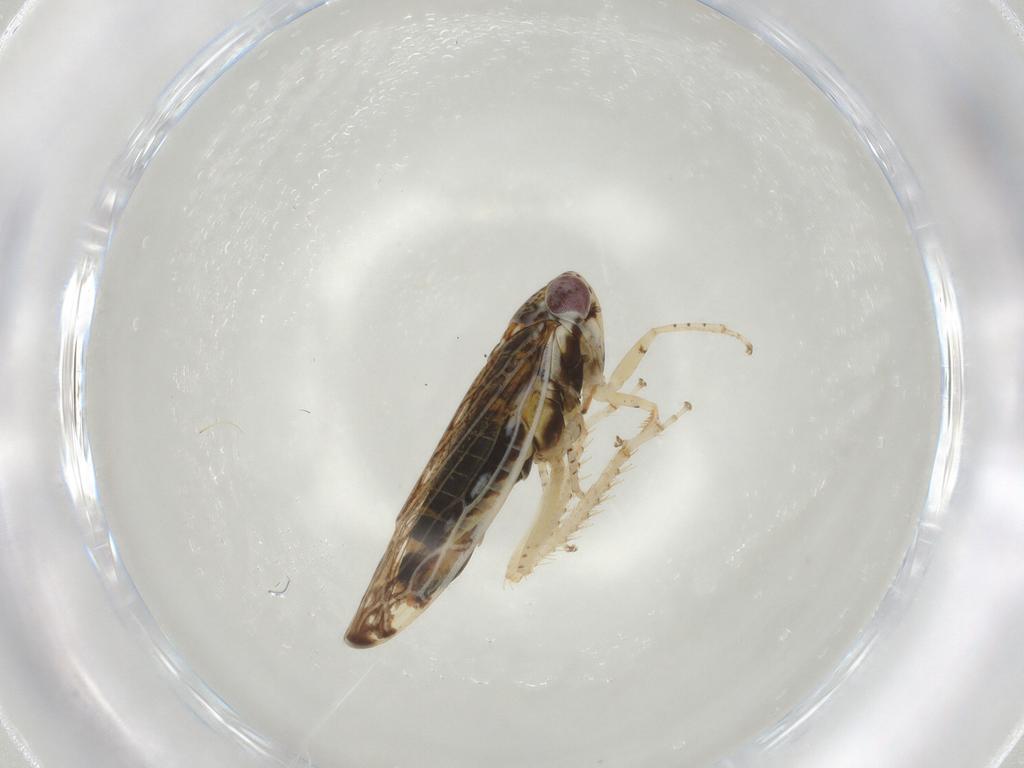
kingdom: Animalia
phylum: Arthropoda
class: Insecta
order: Hemiptera
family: Cicadellidae
